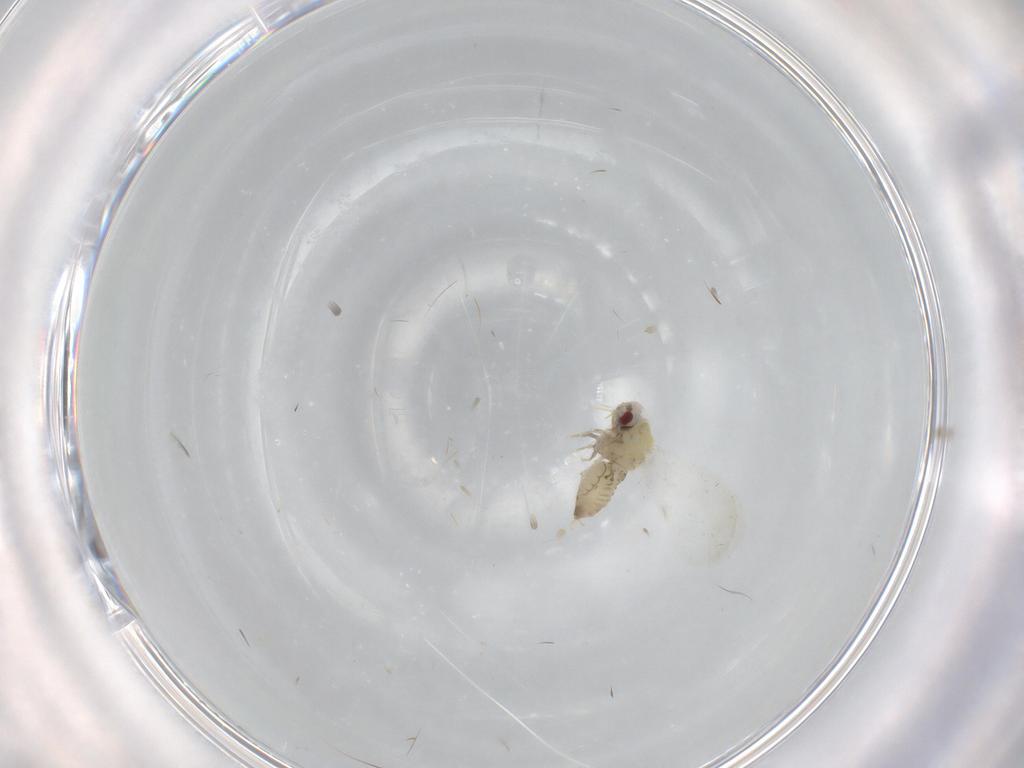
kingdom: Animalia
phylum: Arthropoda
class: Insecta
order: Hemiptera
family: Aleyrodidae
